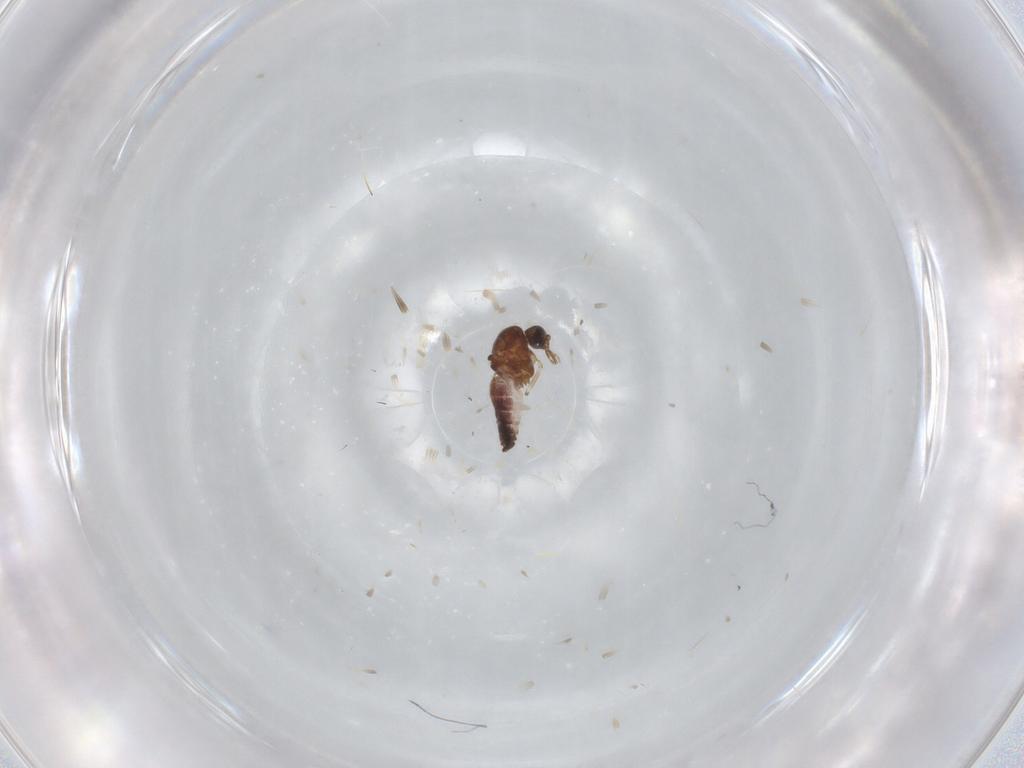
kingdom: Animalia
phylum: Arthropoda
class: Insecta
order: Diptera
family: Ceratopogonidae
